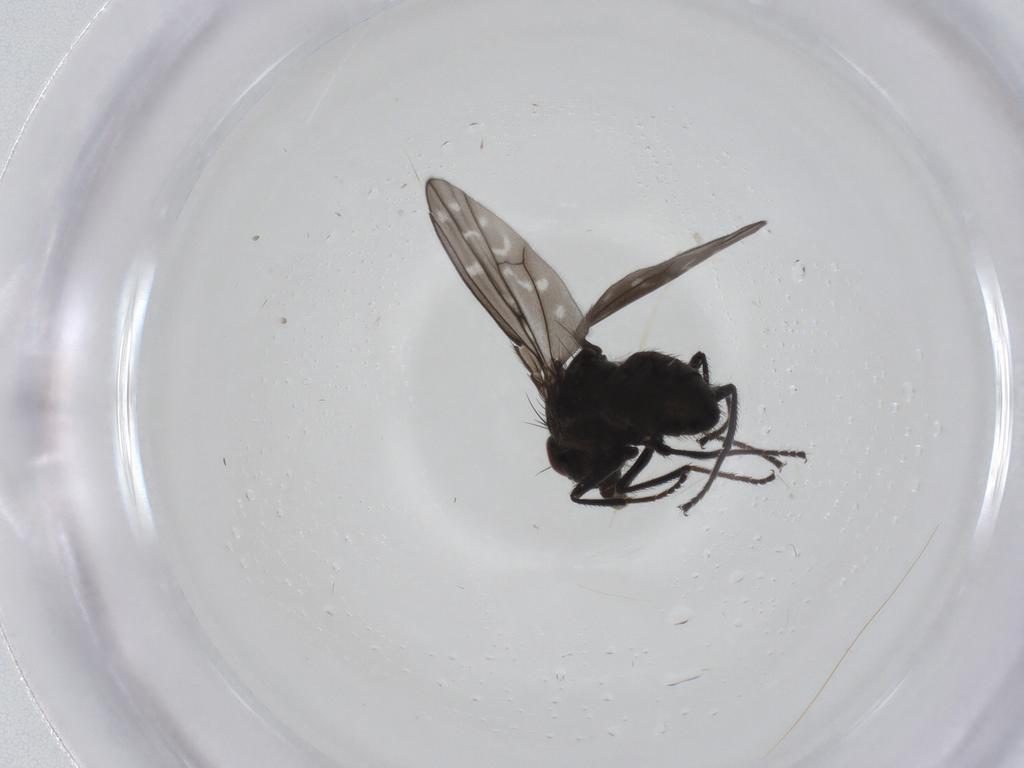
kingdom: Animalia
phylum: Arthropoda
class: Insecta
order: Diptera
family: Ephydridae
